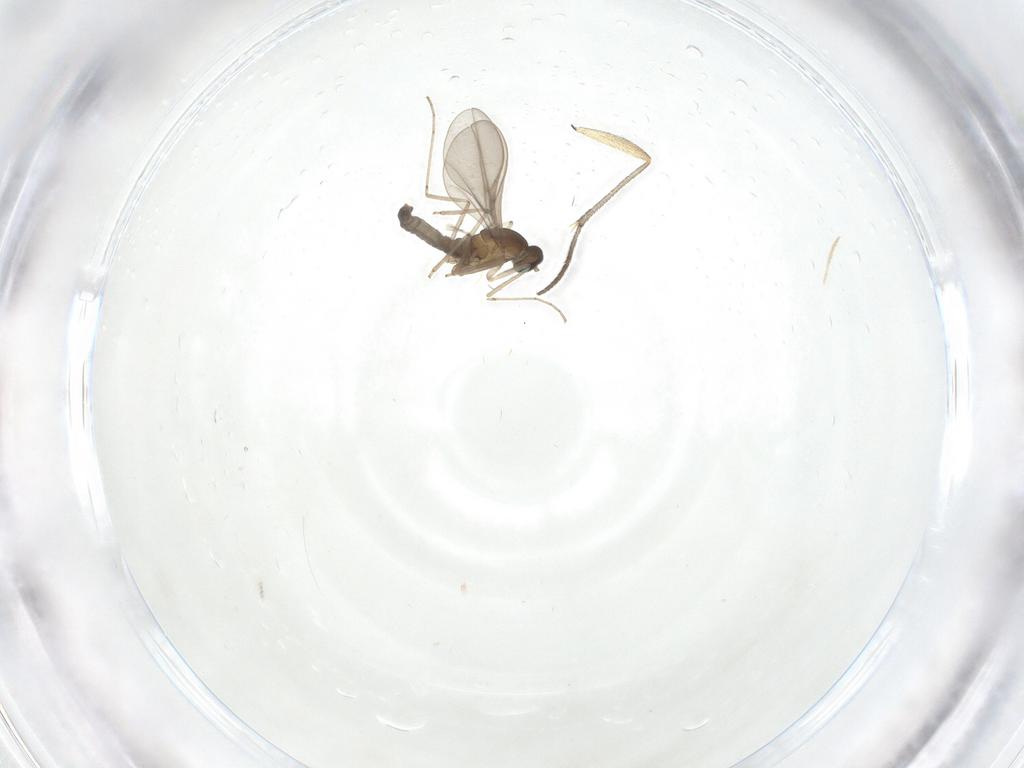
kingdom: Animalia
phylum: Arthropoda
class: Insecta
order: Diptera
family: Cecidomyiidae
